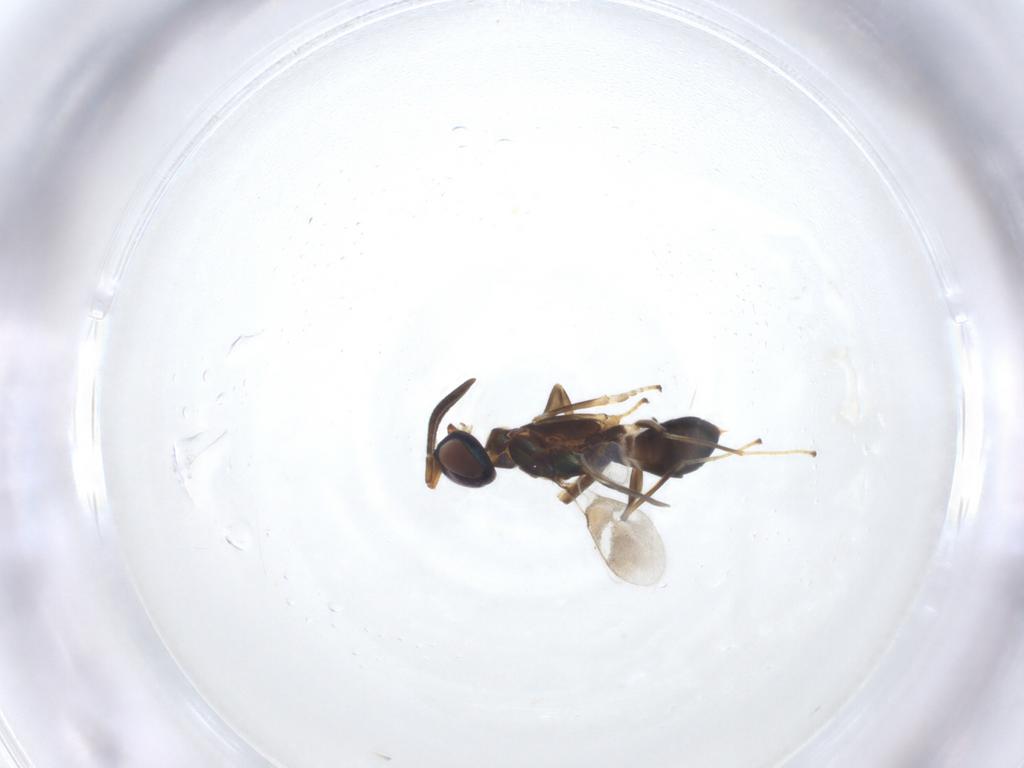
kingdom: Animalia
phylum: Arthropoda
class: Insecta
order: Hymenoptera
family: Eupelmidae
